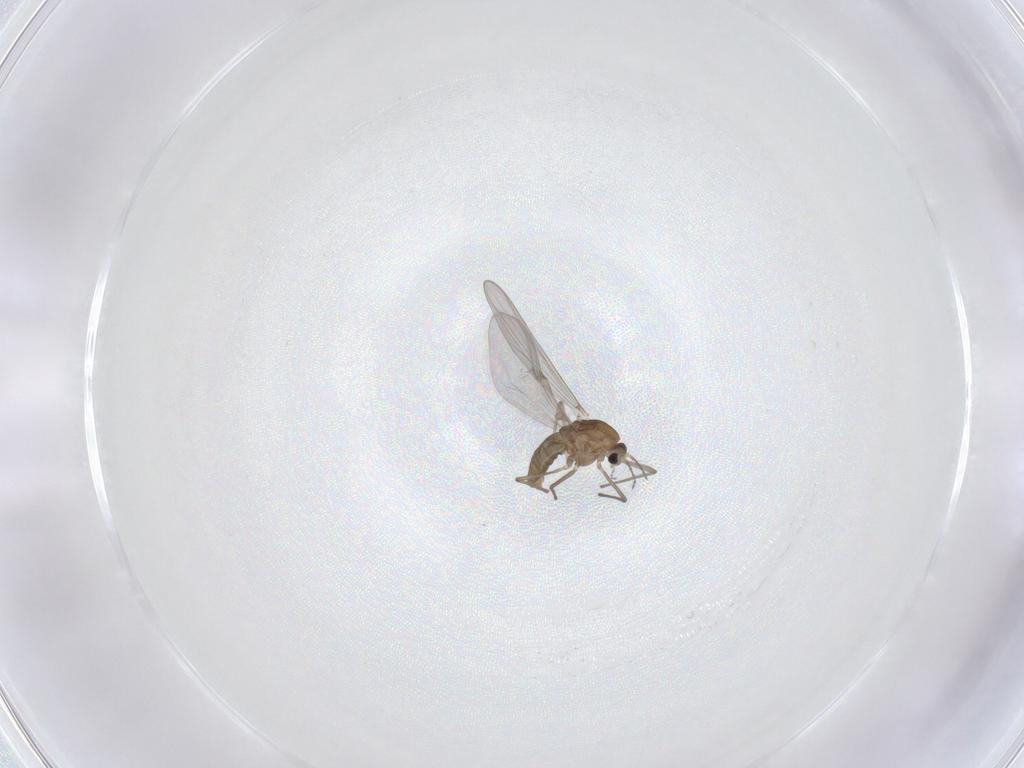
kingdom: Animalia
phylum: Arthropoda
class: Insecta
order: Diptera
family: Chironomidae
